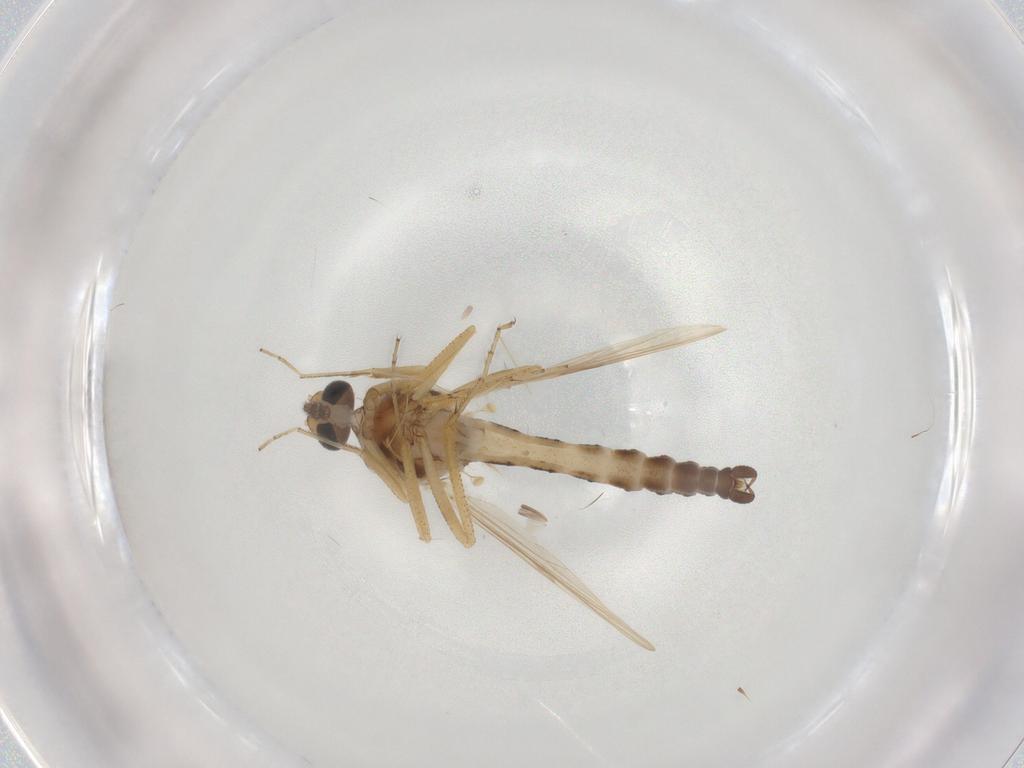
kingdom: Animalia
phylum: Arthropoda
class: Insecta
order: Diptera
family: Ceratopogonidae
